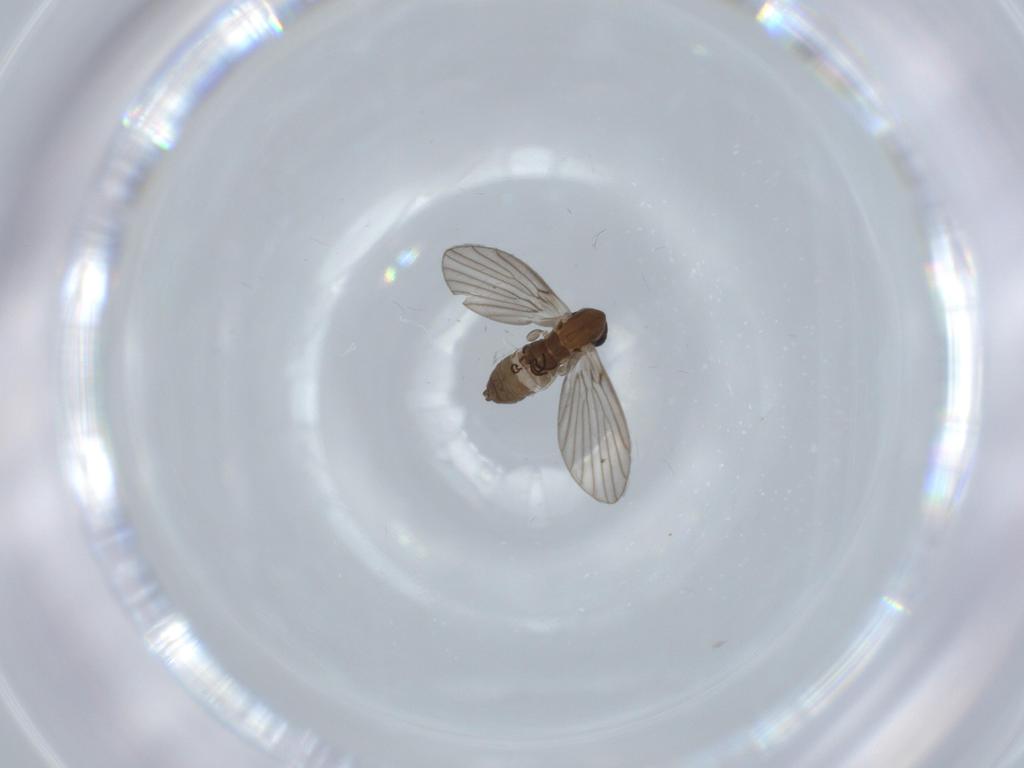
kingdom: Animalia
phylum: Arthropoda
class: Insecta
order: Diptera
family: Psychodidae
